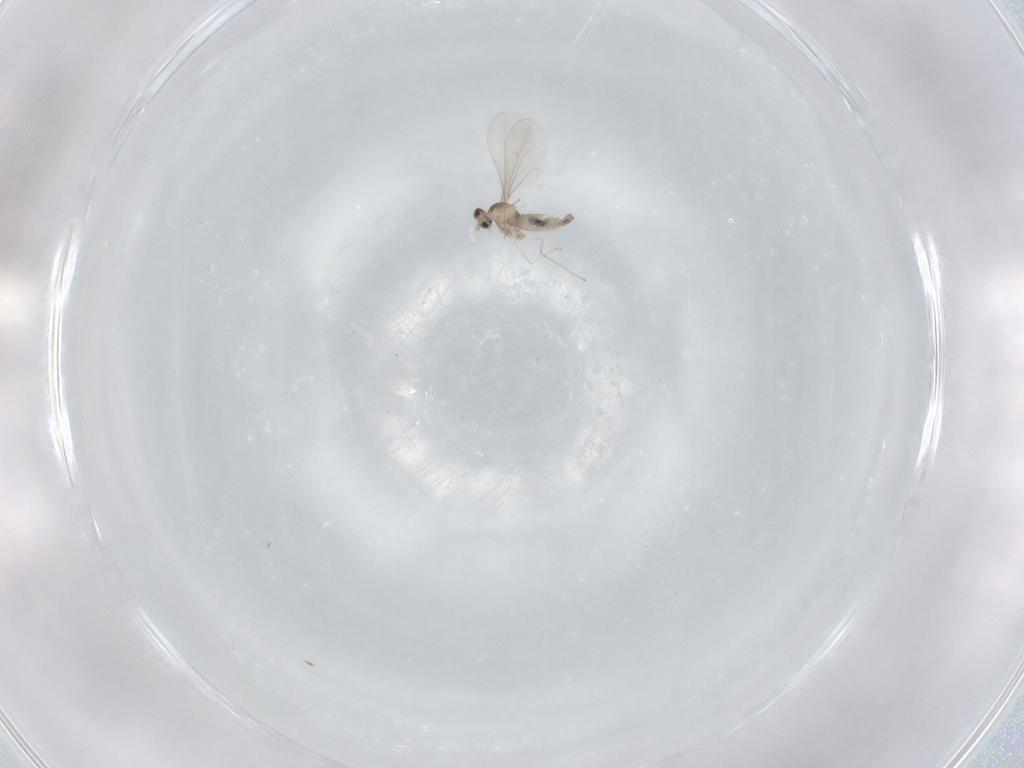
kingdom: Animalia
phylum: Arthropoda
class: Insecta
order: Diptera
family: Cecidomyiidae
